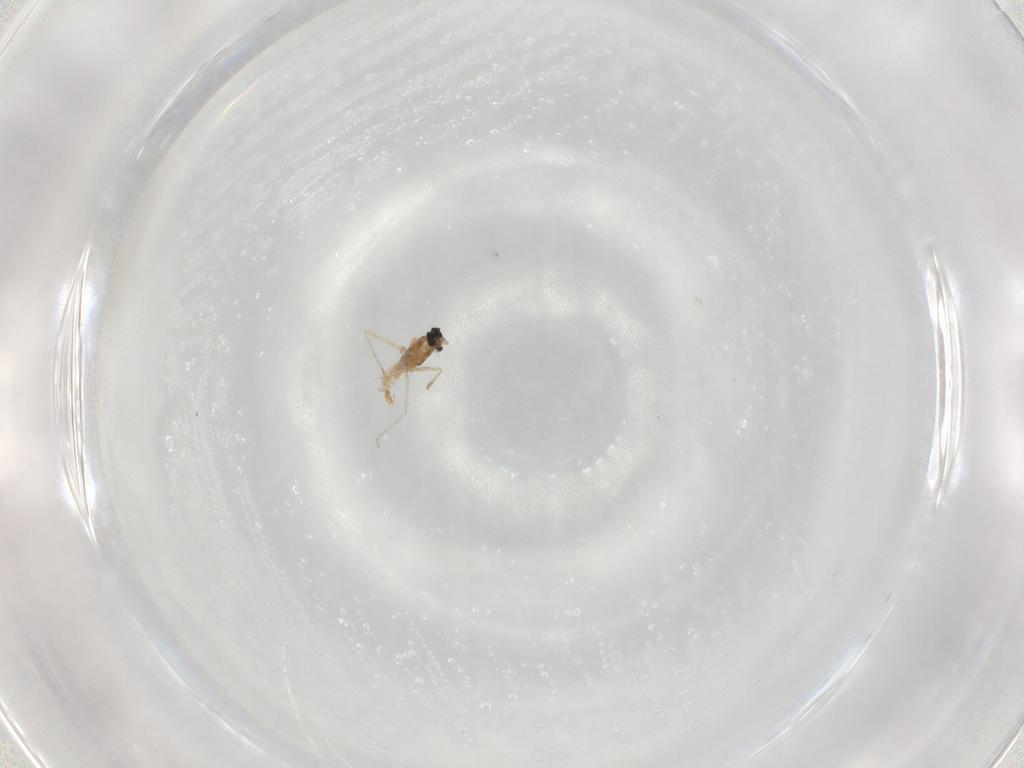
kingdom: Animalia
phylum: Arthropoda
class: Insecta
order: Diptera
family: Cecidomyiidae
